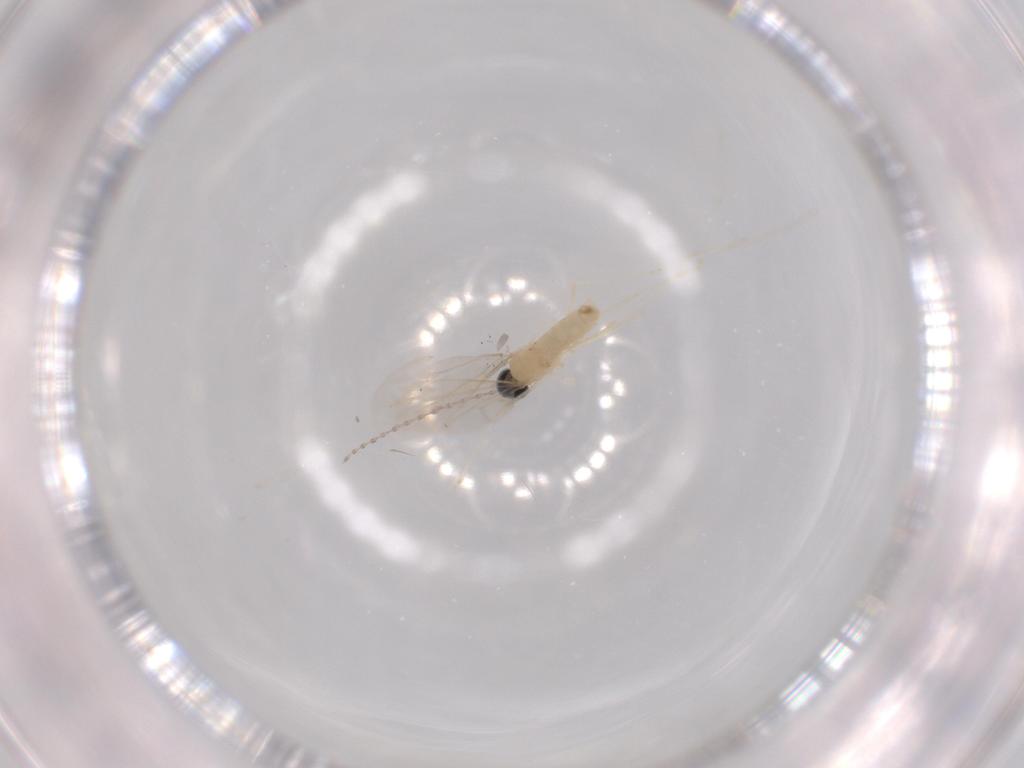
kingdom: Animalia
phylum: Arthropoda
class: Insecta
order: Diptera
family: Cecidomyiidae
